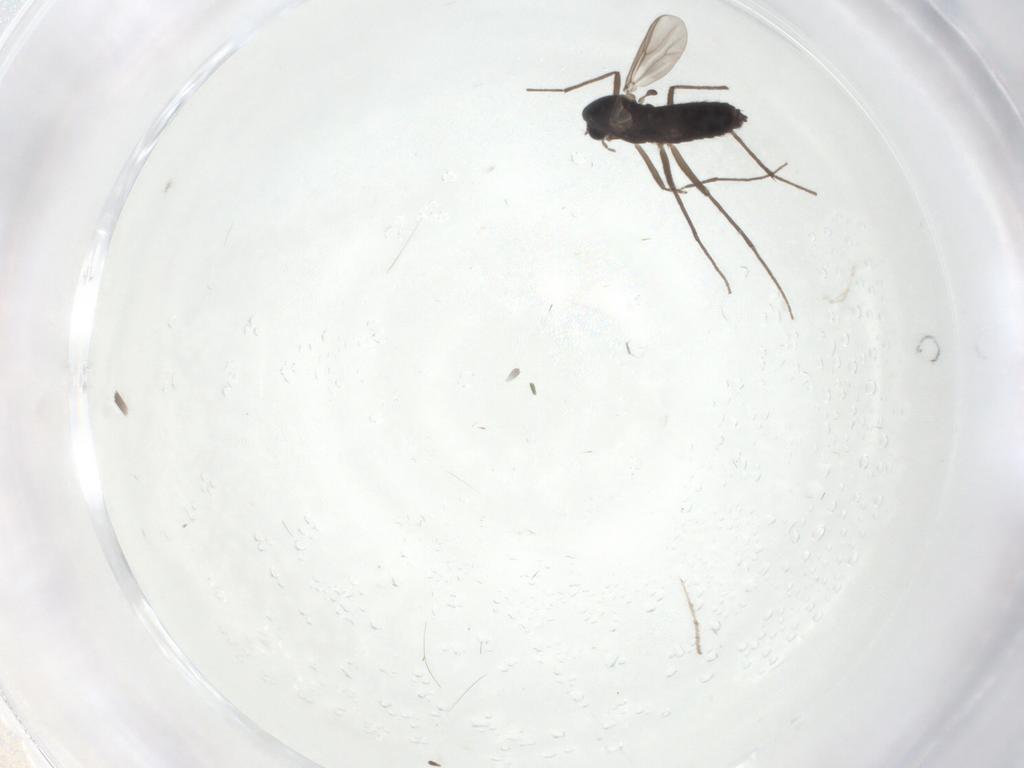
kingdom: Animalia
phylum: Arthropoda
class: Insecta
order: Diptera
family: Chironomidae
